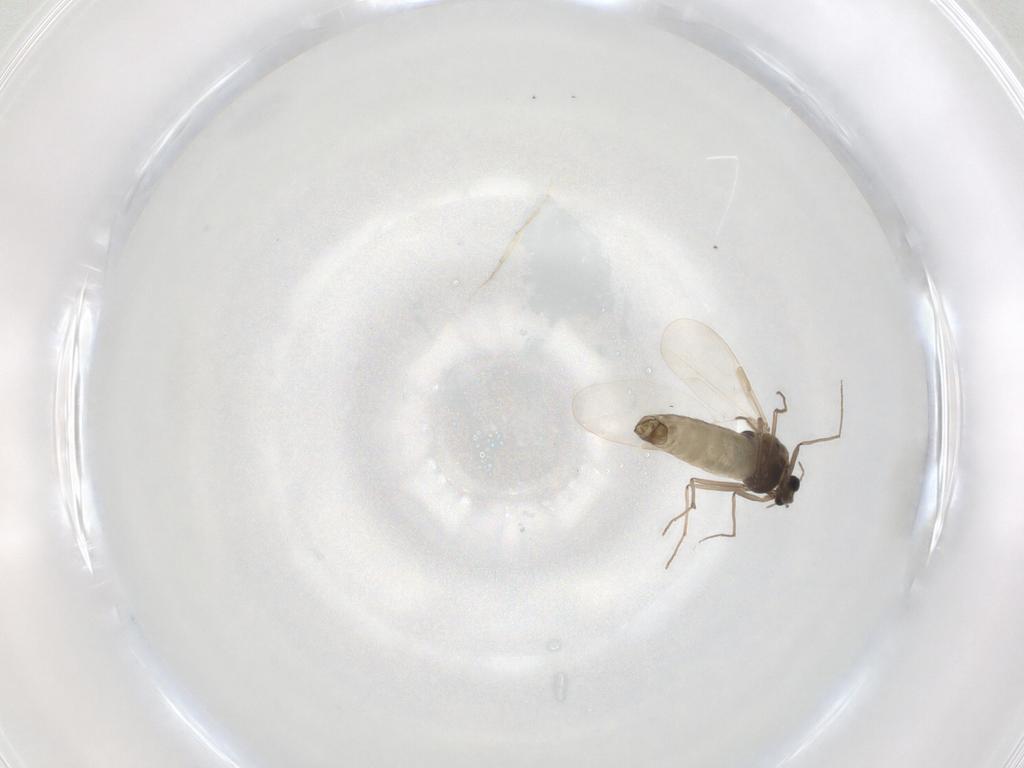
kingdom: Animalia
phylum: Arthropoda
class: Insecta
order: Diptera
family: Chironomidae
